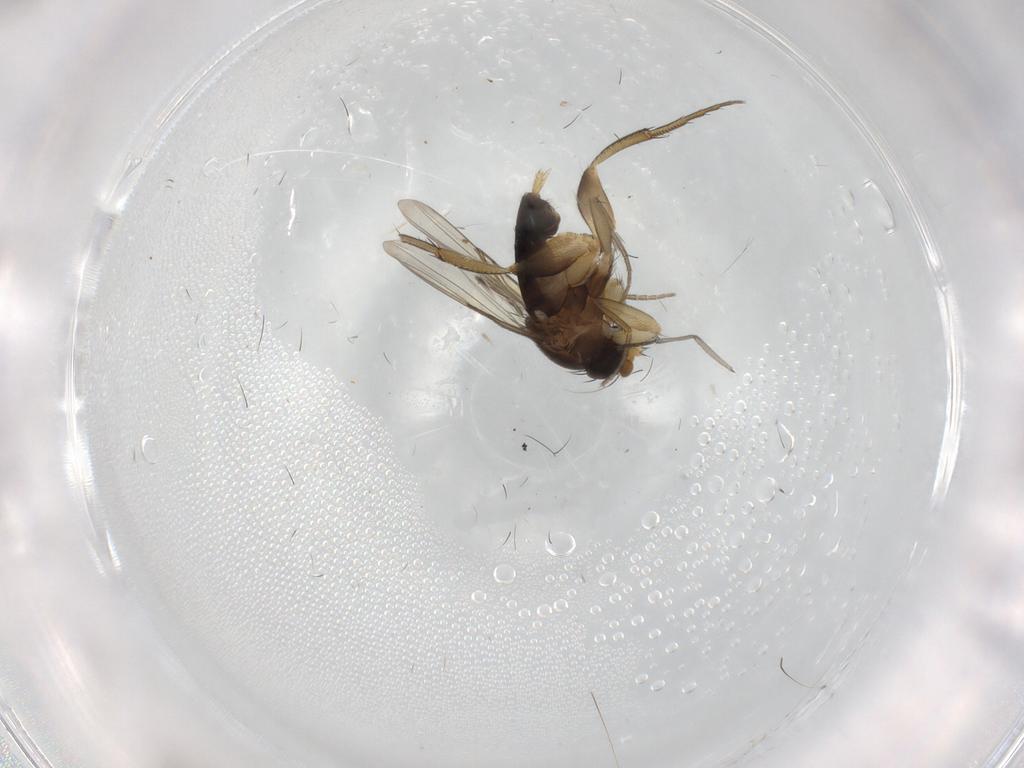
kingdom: Animalia
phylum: Arthropoda
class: Insecta
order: Diptera
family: Sciaridae
